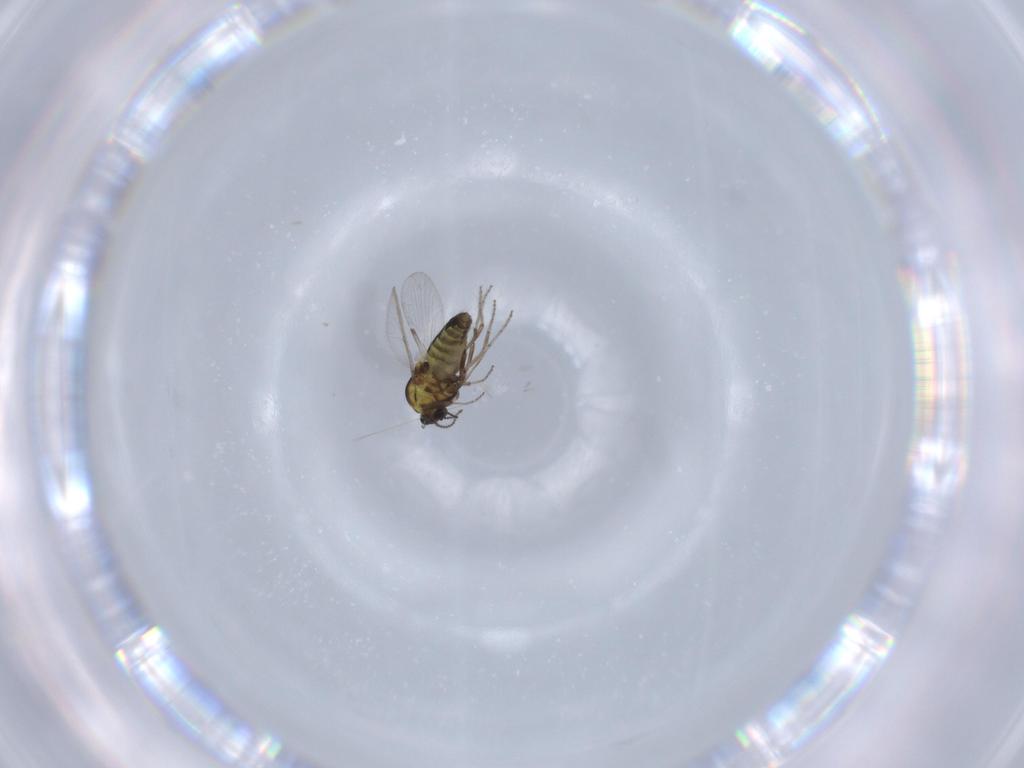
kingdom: Animalia
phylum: Arthropoda
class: Insecta
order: Diptera
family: Ceratopogonidae
